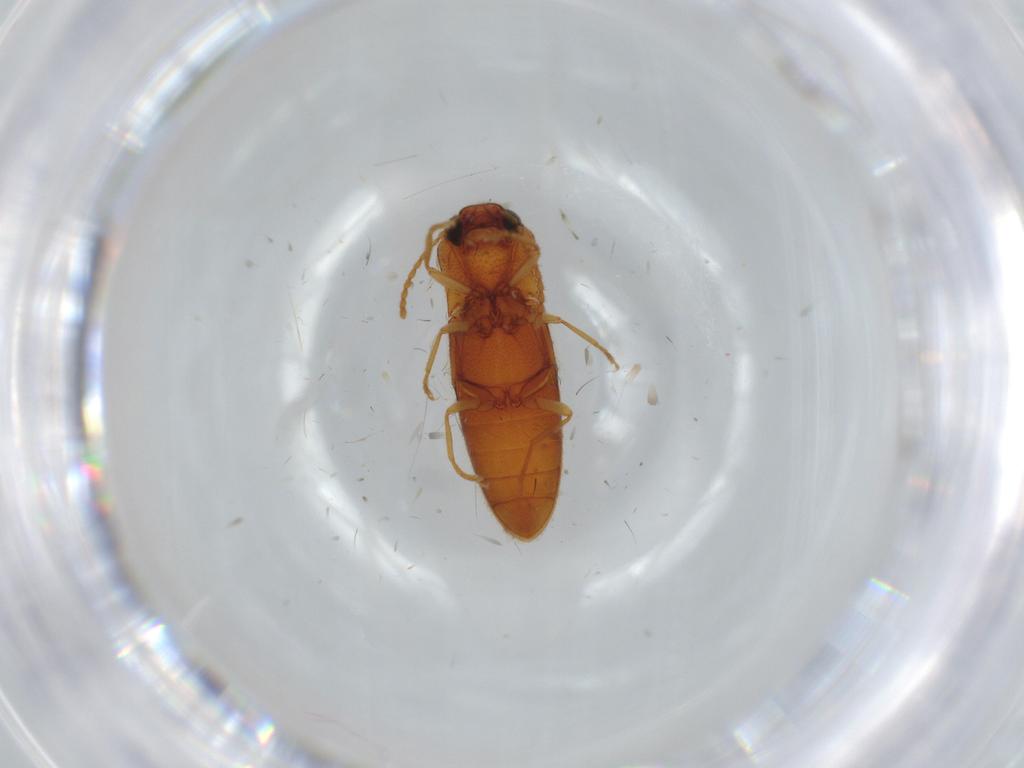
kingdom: Animalia
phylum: Arthropoda
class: Insecta
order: Coleoptera
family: Elateridae
